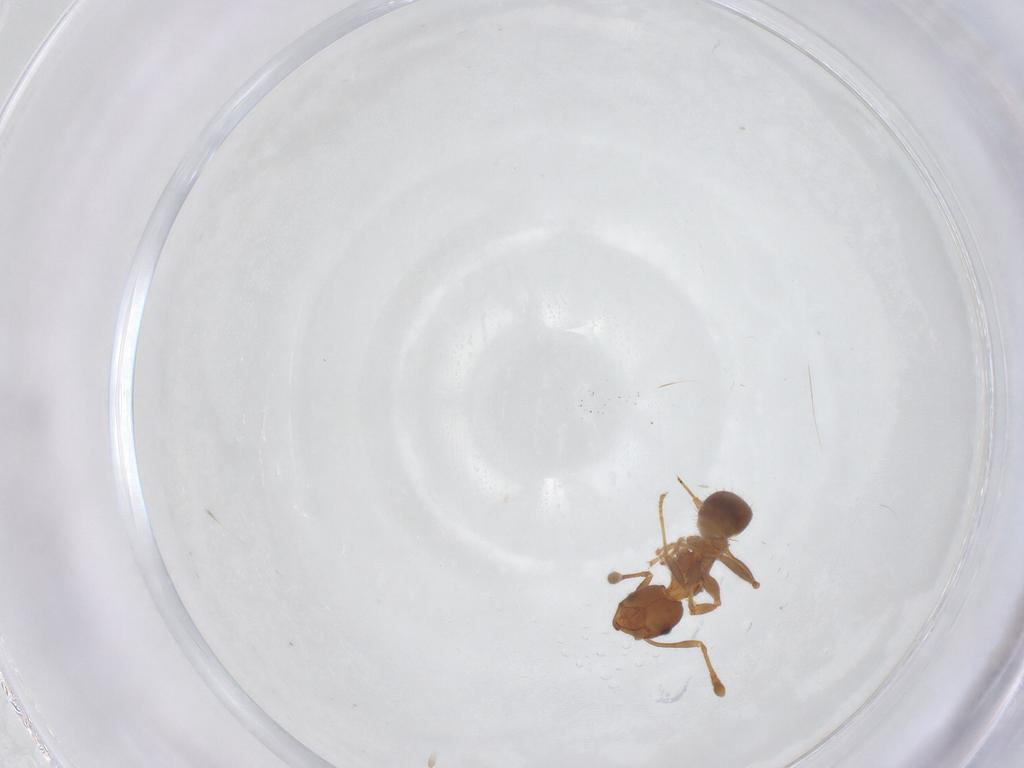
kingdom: Animalia
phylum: Arthropoda
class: Insecta
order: Hymenoptera
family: Formicidae
